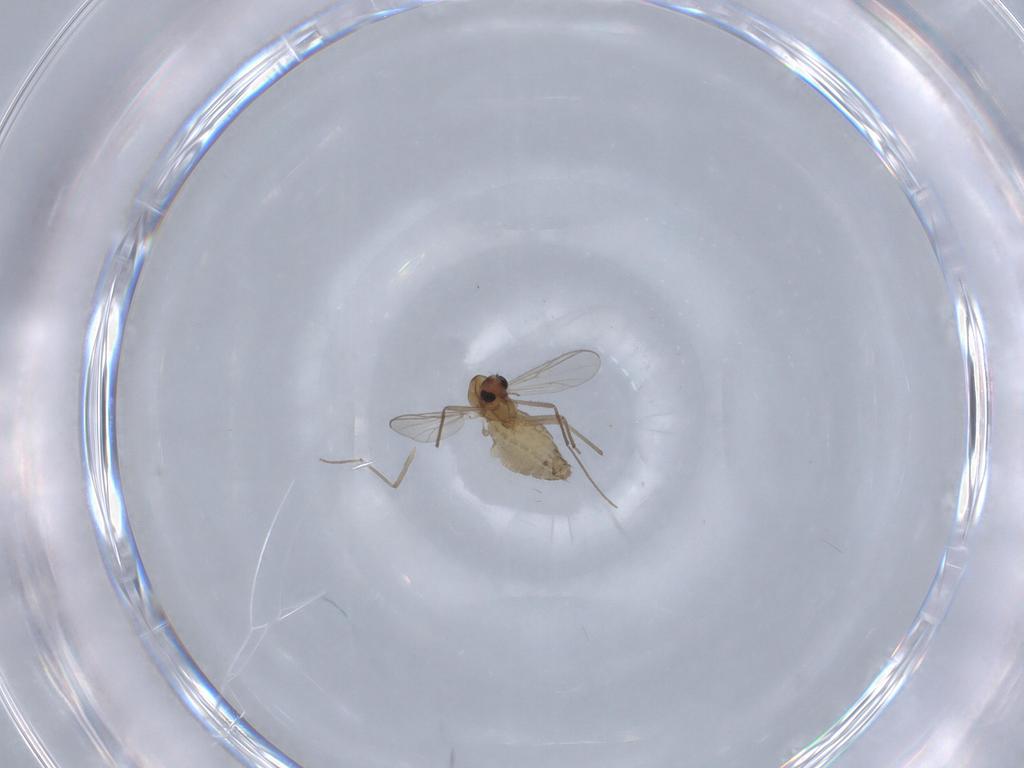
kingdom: Animalia
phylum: Arthropoda
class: Insecta
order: Diptera
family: Chironomidae
